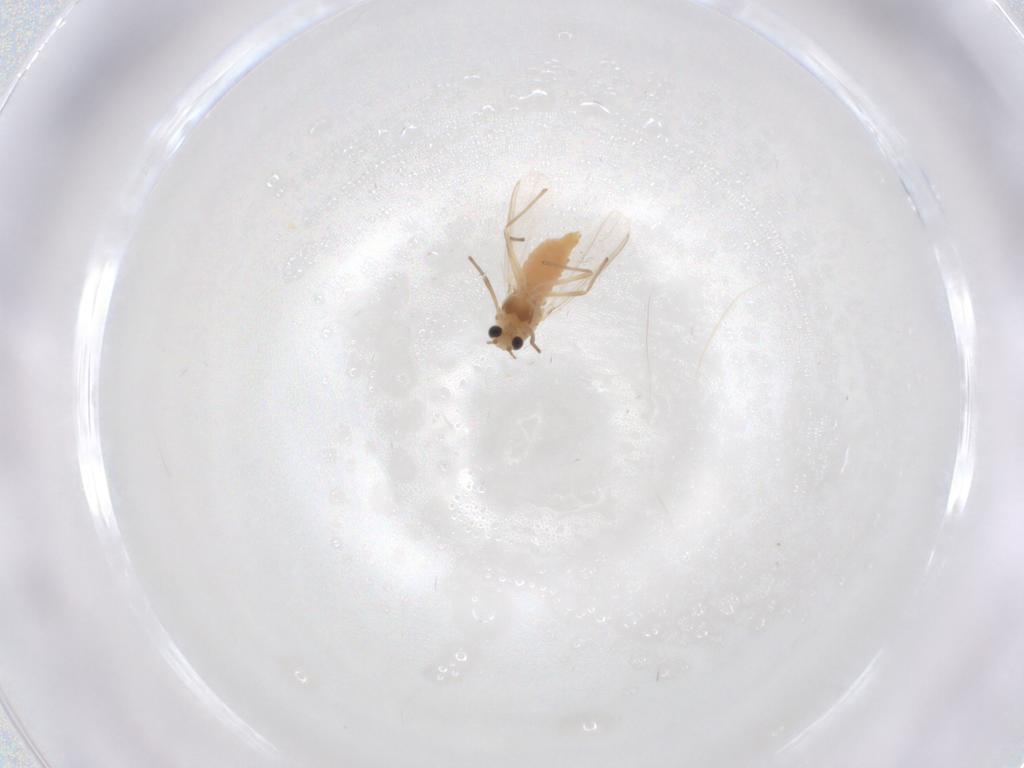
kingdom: Animalia
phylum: Arthropoda
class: Insecta
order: Diptera
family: Chironomidae
